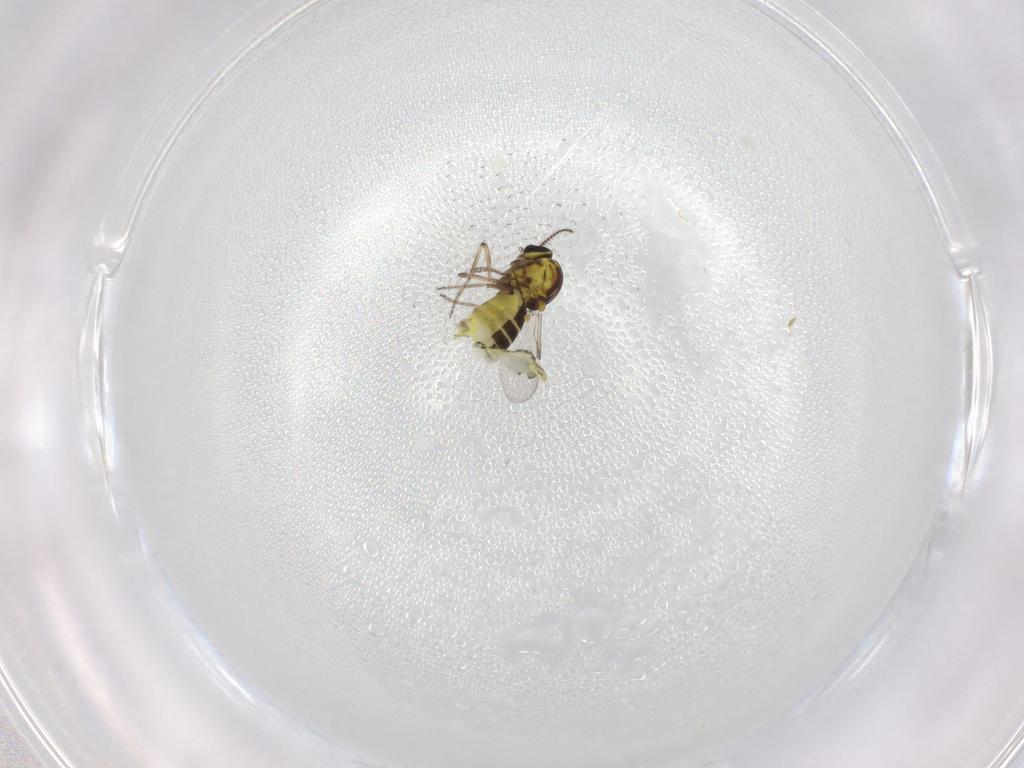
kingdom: Animalia
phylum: Arthropoda
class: Insecta
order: Diptera
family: Ceratopogonidae
